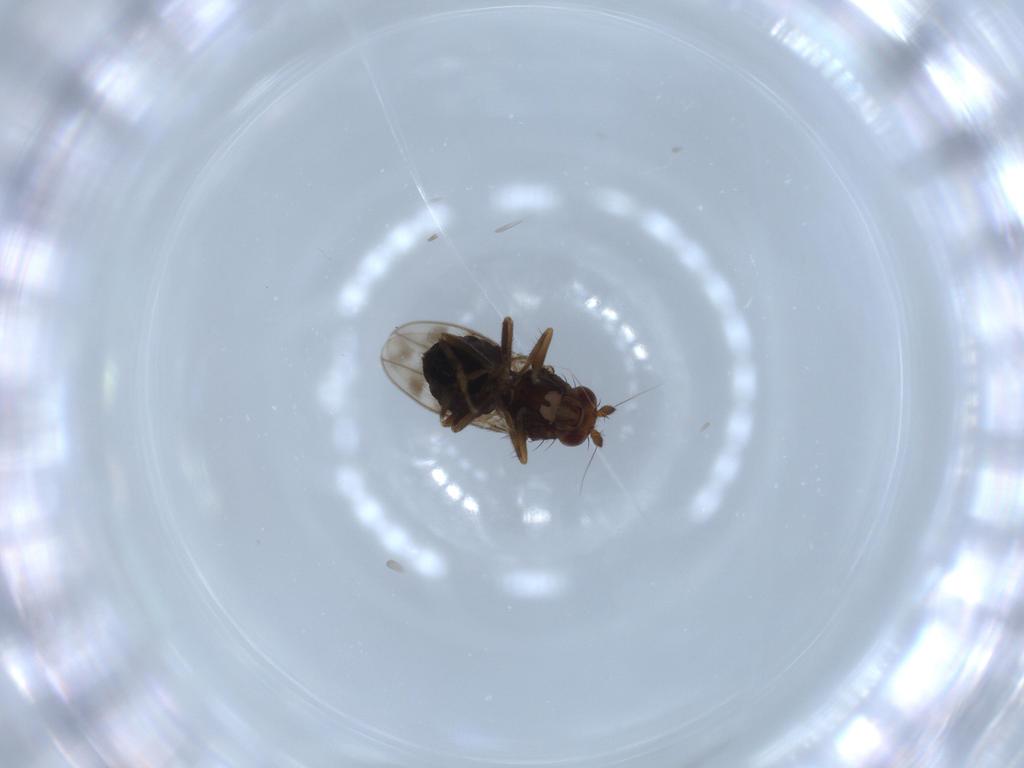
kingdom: Animalia
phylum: Arthropoda
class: Insecta
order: Diptera
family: Sphaeroceridae
